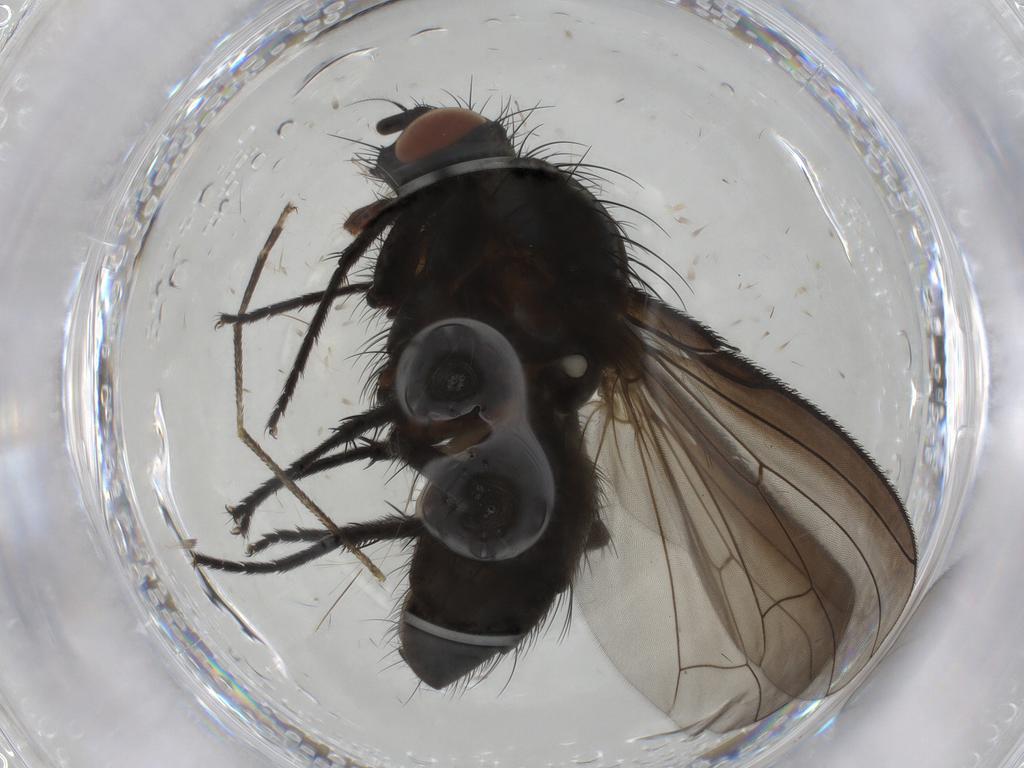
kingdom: Animalia
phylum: Arthropoda
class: Insecta
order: Diptera
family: Anthomyiidae
